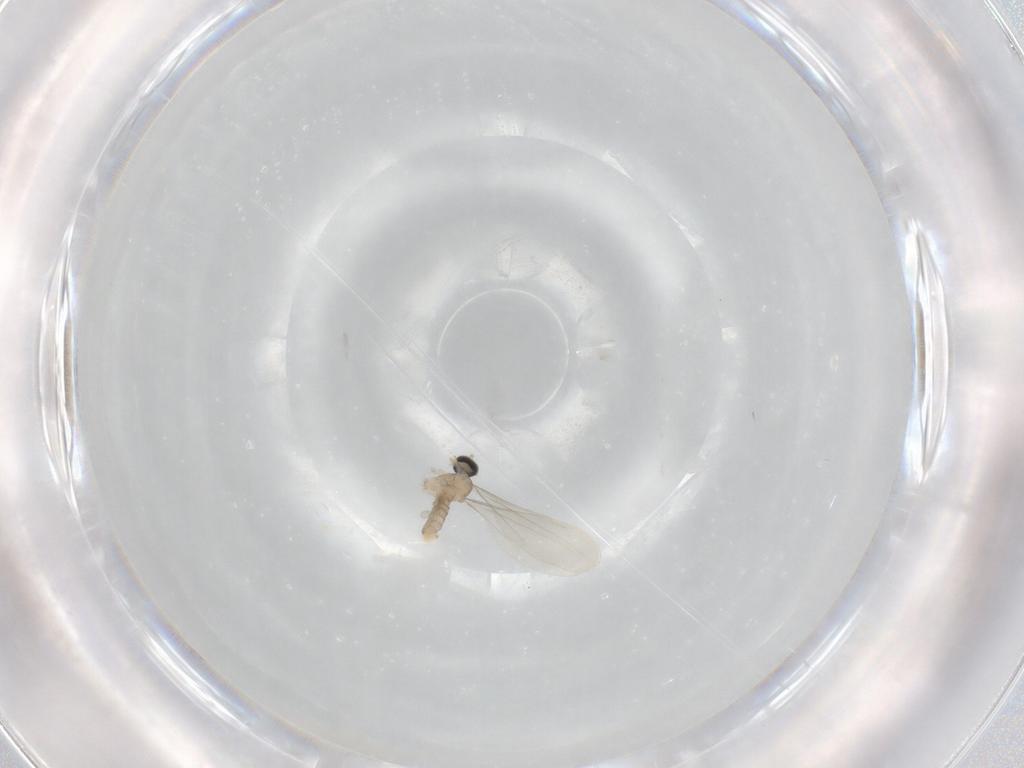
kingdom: Animalia
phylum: Arthropoda
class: Insecta
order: Diptera
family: Cecidomyiidae
